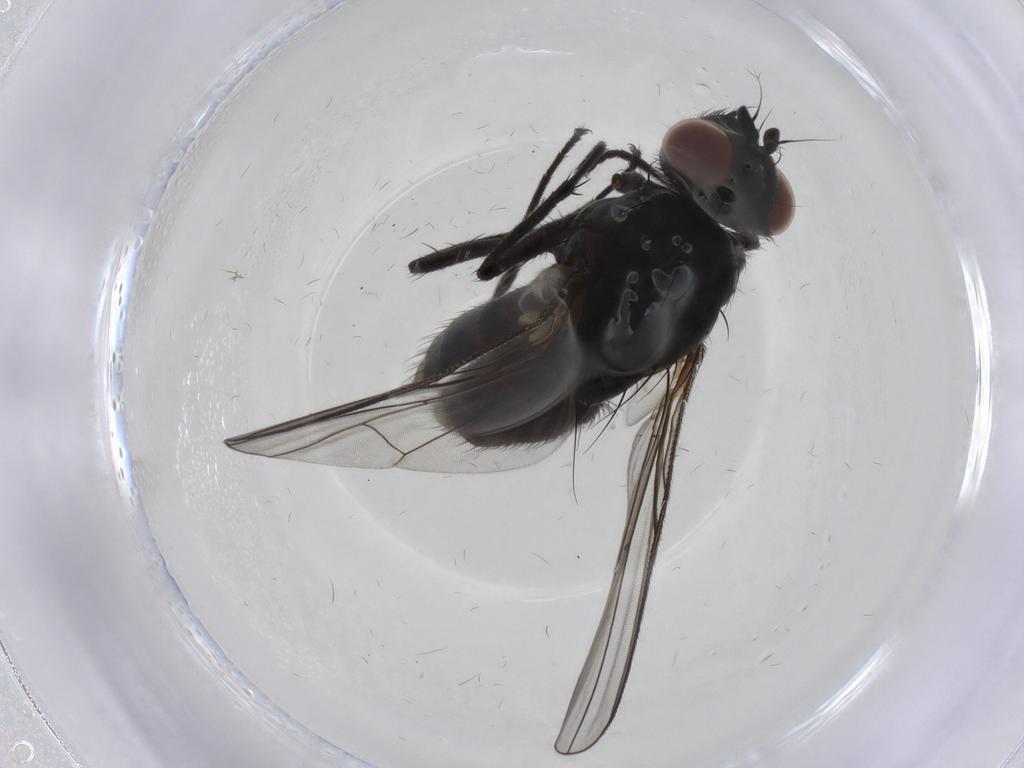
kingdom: Animalia
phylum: Arthropoda
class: Insecta
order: Diptera
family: Muscidae
